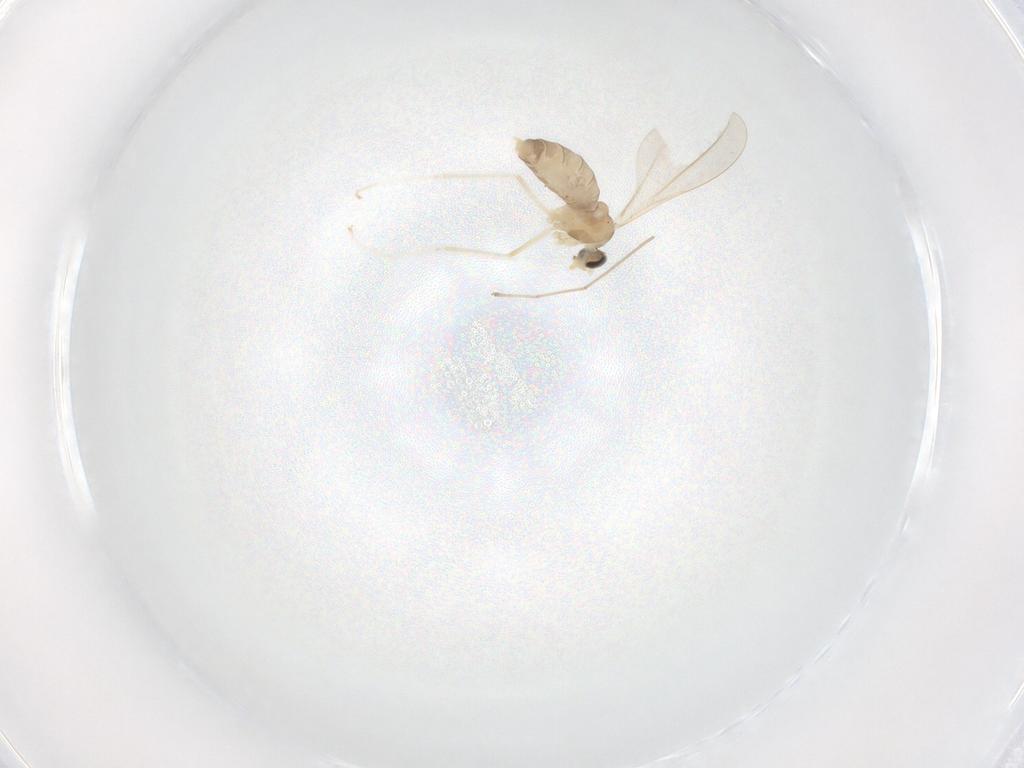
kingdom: Animalia
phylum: Arthropoda
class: Insecta
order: Diptera
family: Cecidomyiidae
